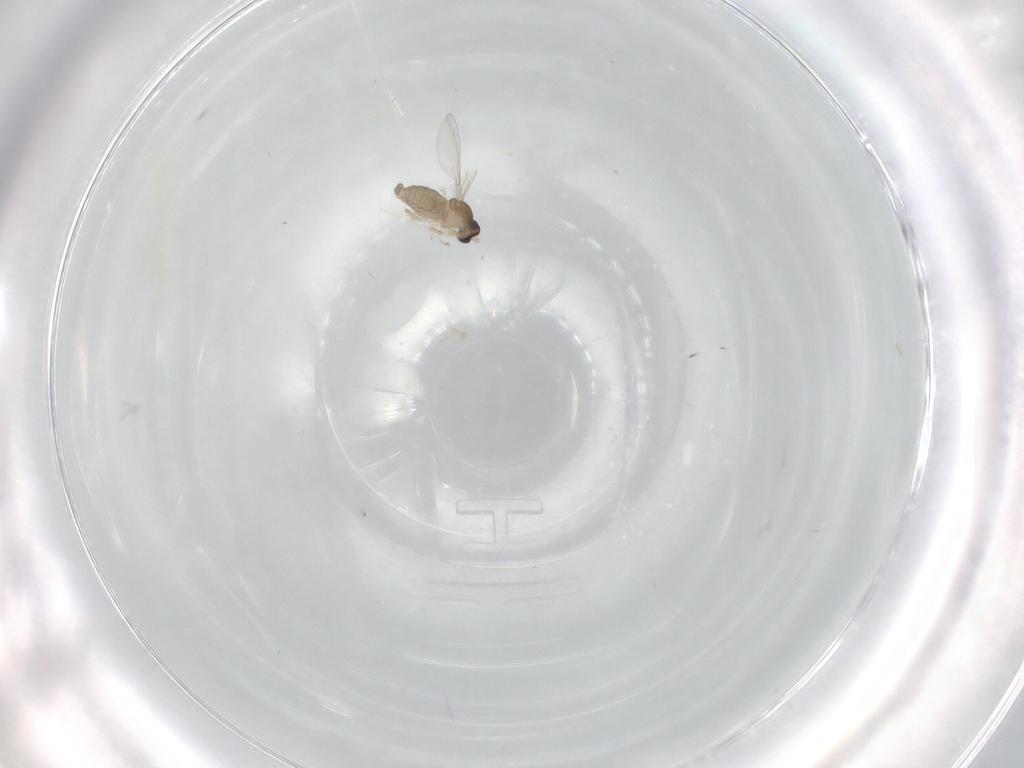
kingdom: Animalia
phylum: Arthropoda
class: Insecta
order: Diptera
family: Cecidomyiidae
